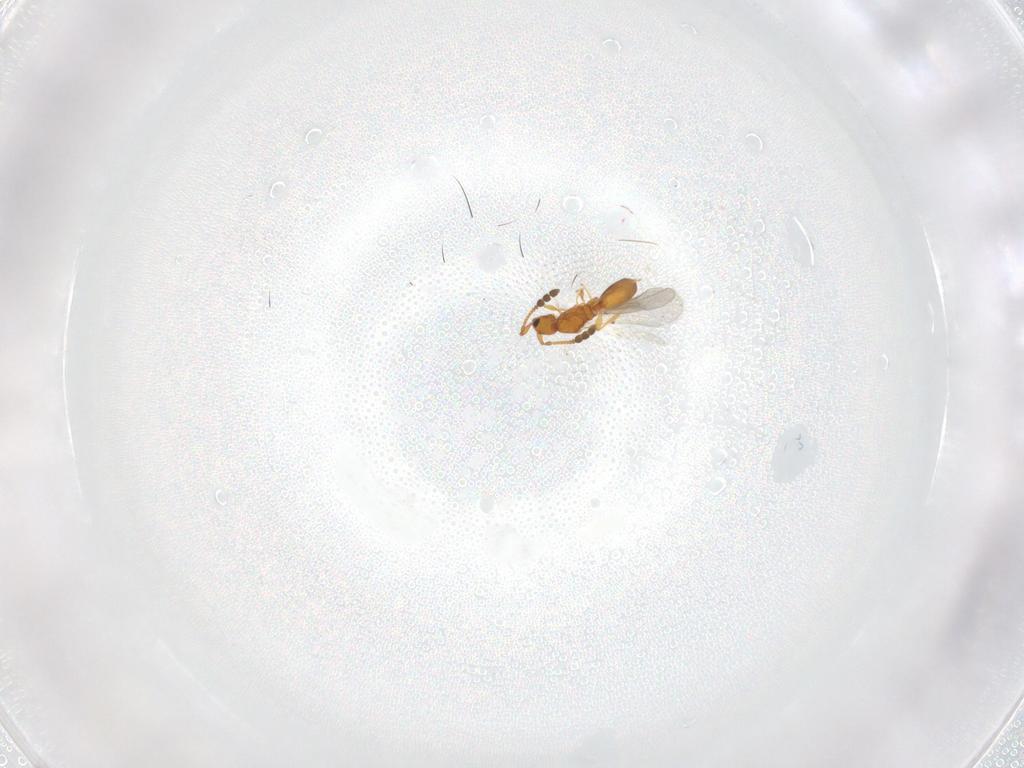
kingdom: Animalia
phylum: Arthropoda
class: Insecta
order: Hymenoptera
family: Diapriidae
